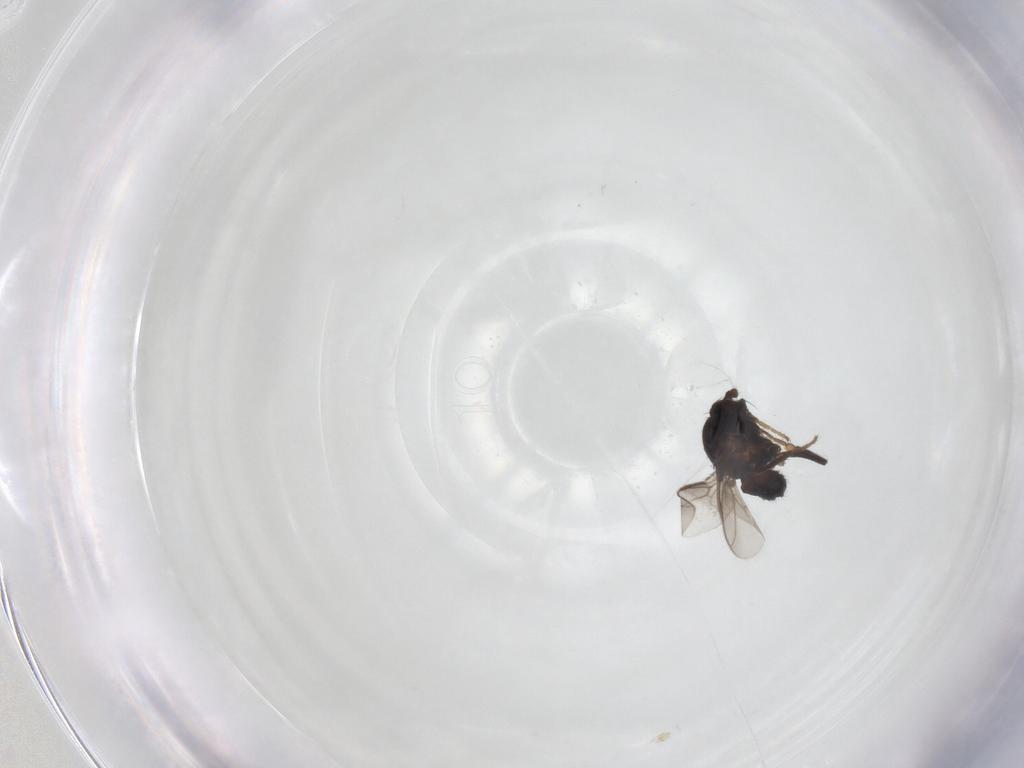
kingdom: Animalia
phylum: Arthropoda
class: Insecta
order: Diptera
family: Sphaeroceridae
